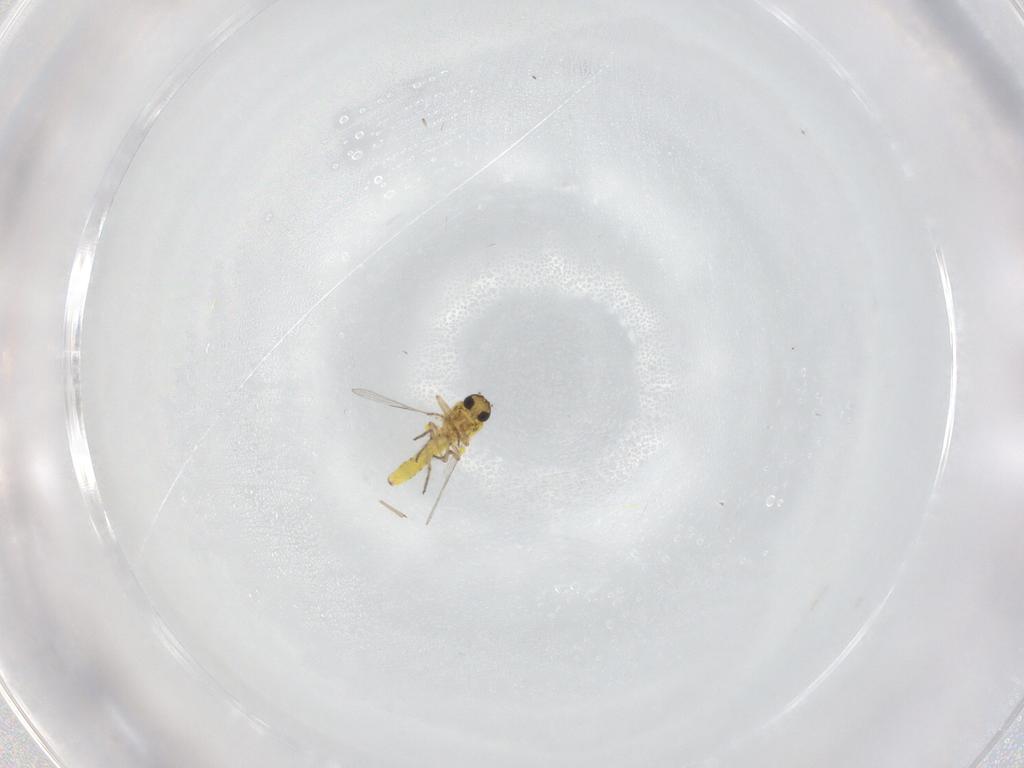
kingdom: Animalia
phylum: Arthropoda
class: Insecta
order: Diptera
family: Ceratopogonidae
